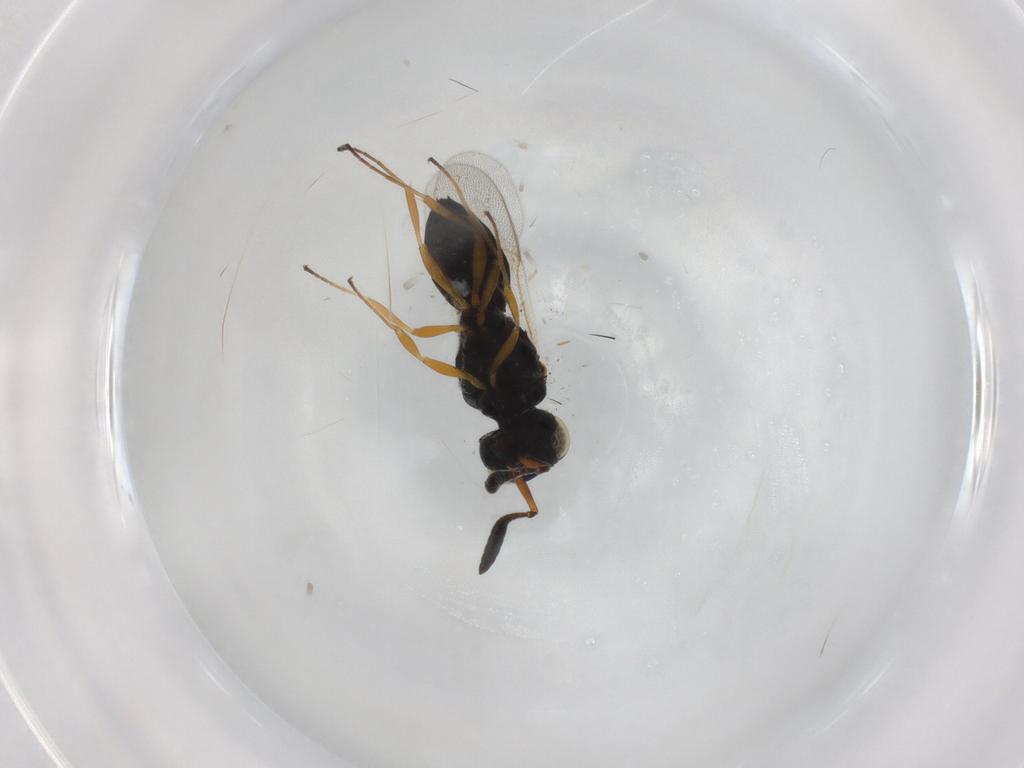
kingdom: Animalia
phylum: Arthropoda
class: Insecta
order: Hymenoptera
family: Scelionidae
